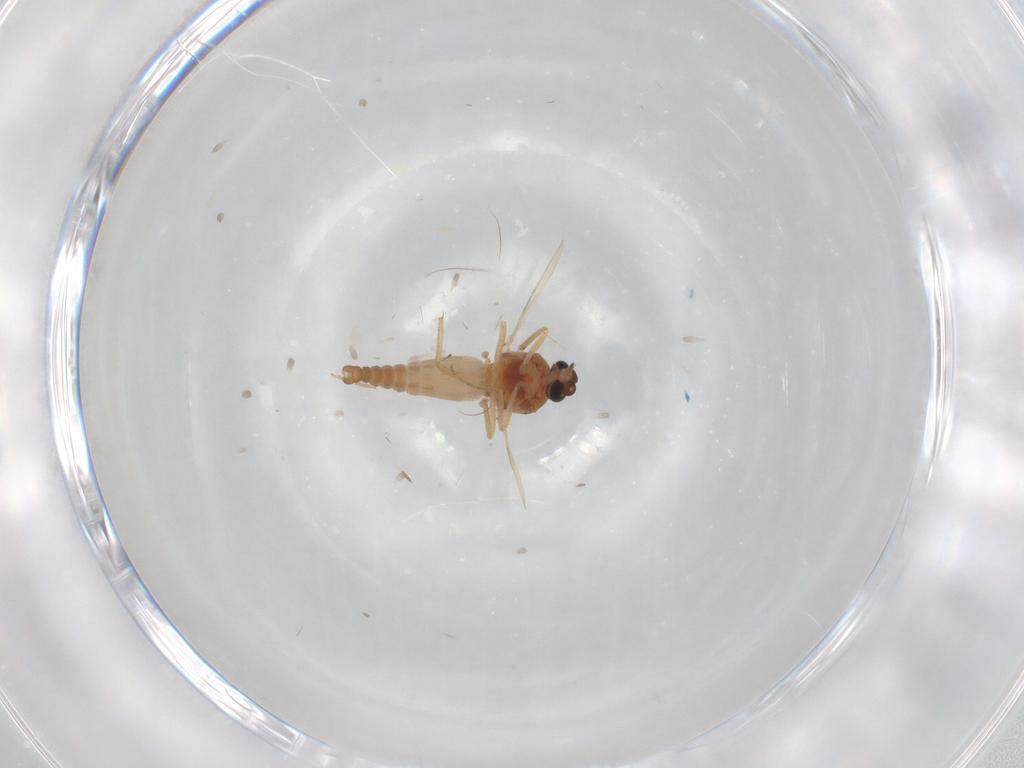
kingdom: Animalia
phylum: Arthropoda
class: Insecta
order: Diptera
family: Ceratopogonidae
